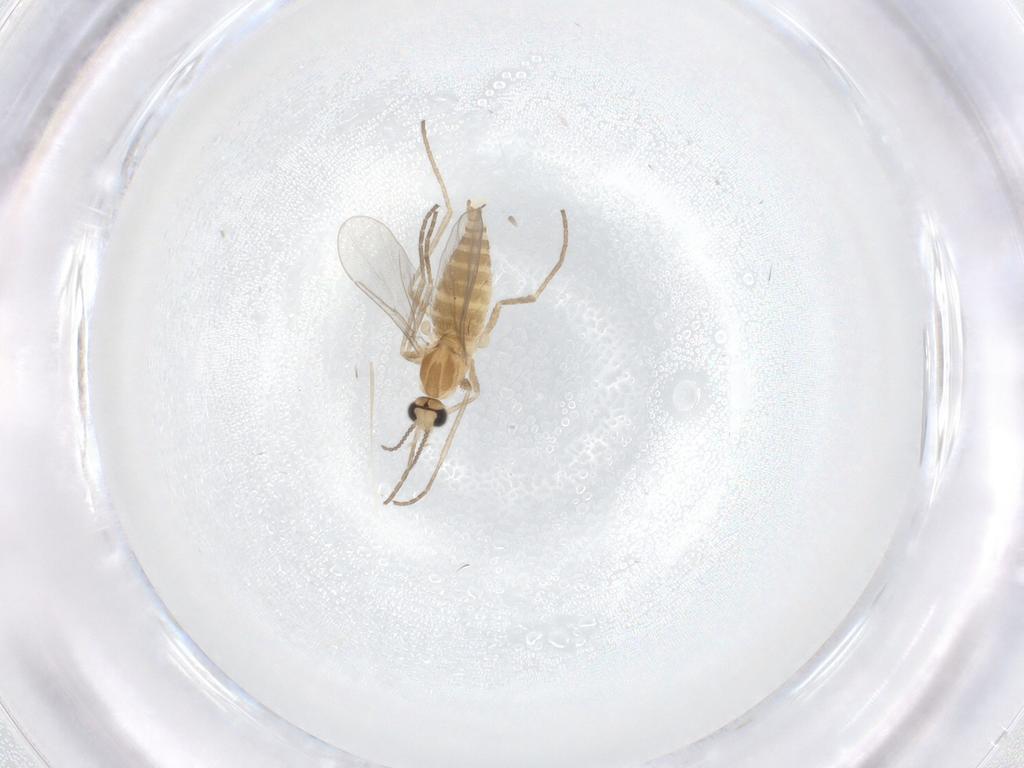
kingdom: Animalia
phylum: Arthropoda
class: Insecta
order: Diptera
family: Cecidomyiidae
